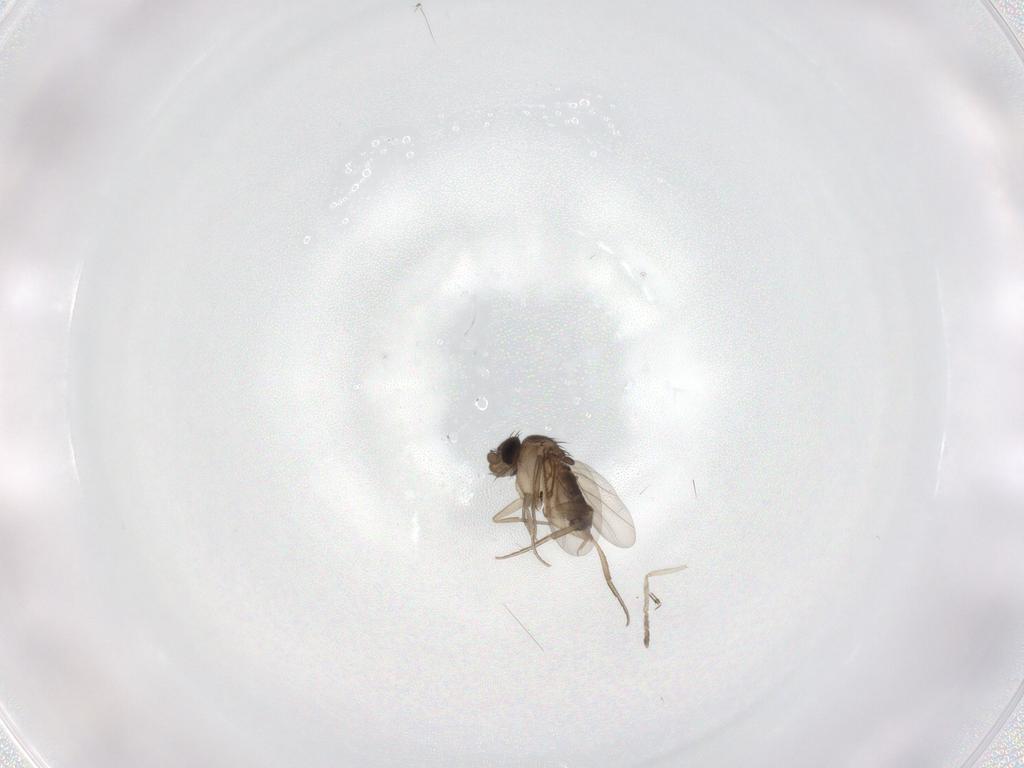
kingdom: Animalia
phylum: Arthropoda
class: Insecta
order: Diptera
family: Phoridae
